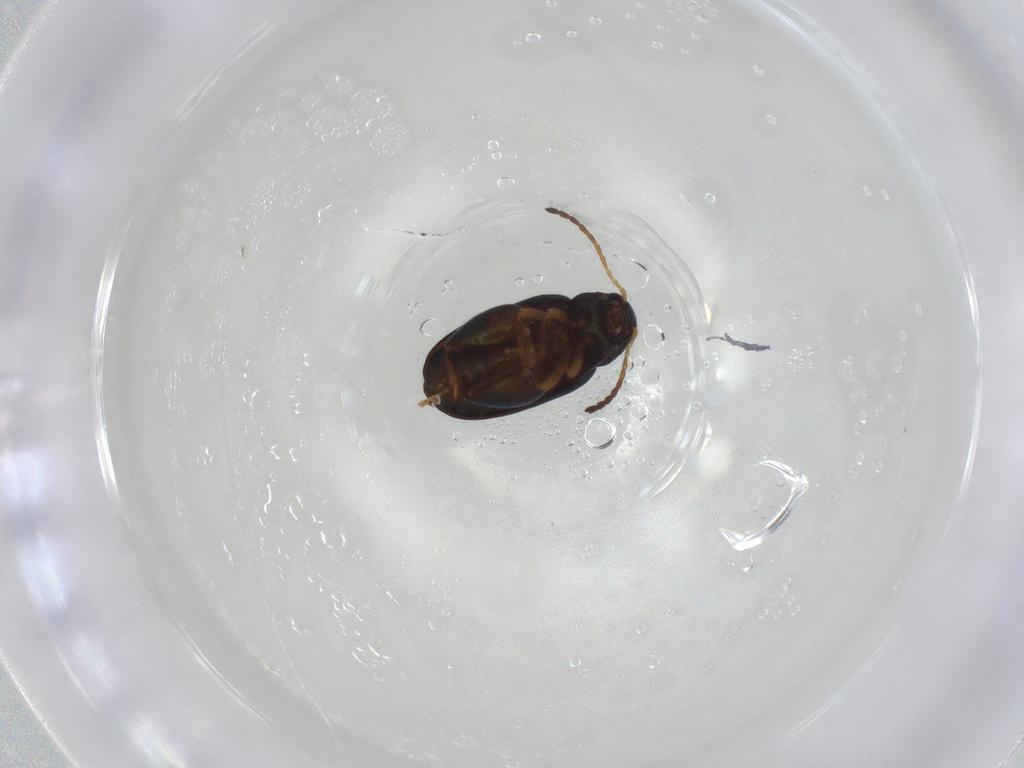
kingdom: Animalia
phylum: Arthropoda
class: Insecta
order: Coleoptera
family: Chrysomelidae
